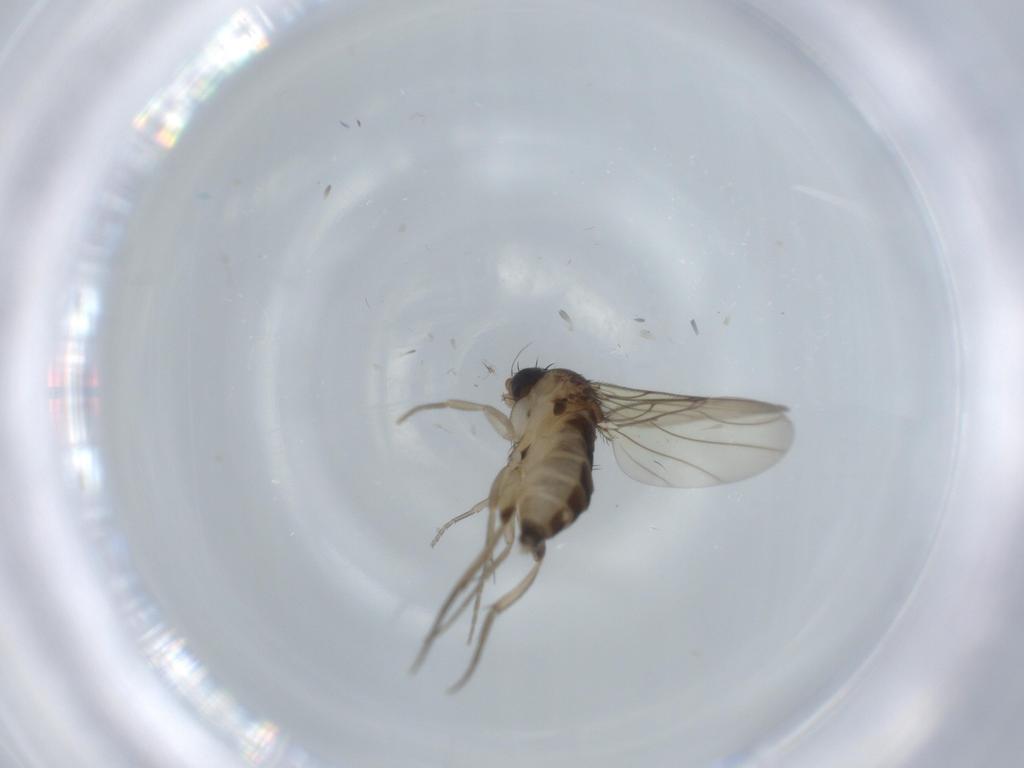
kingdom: Animalia
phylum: Arthropoda
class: Insecta
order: Diptera
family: Phoridae
